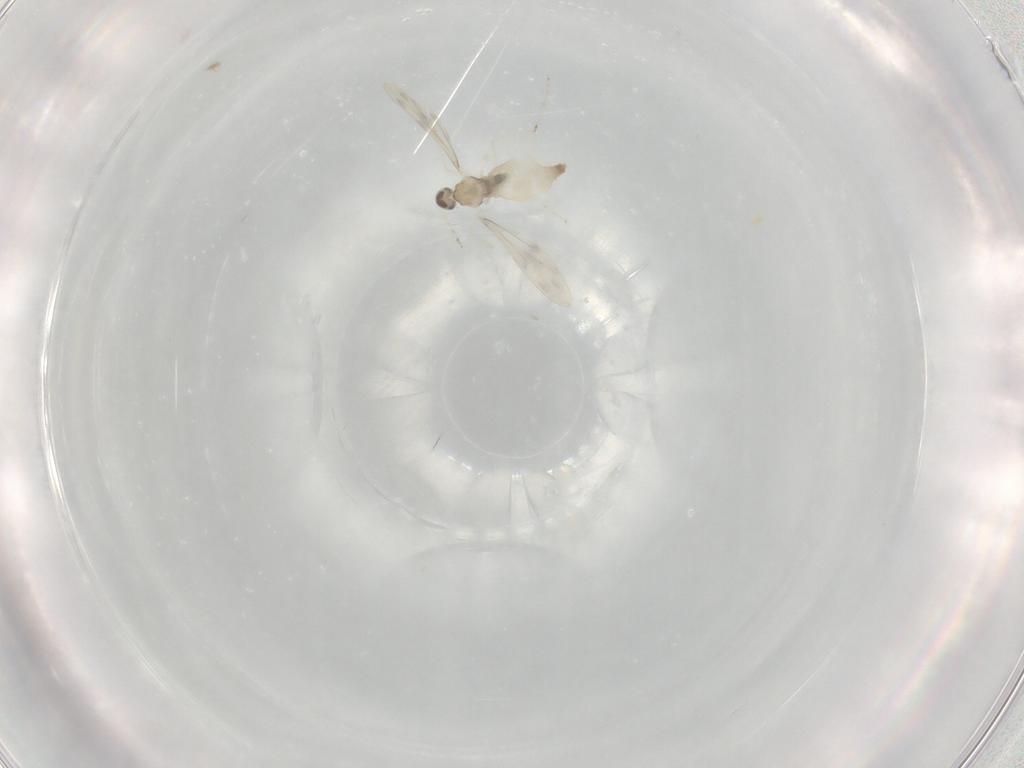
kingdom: Animalia
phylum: Arthropoda
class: Insecta
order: Diptera
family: Cecidomyiidae
